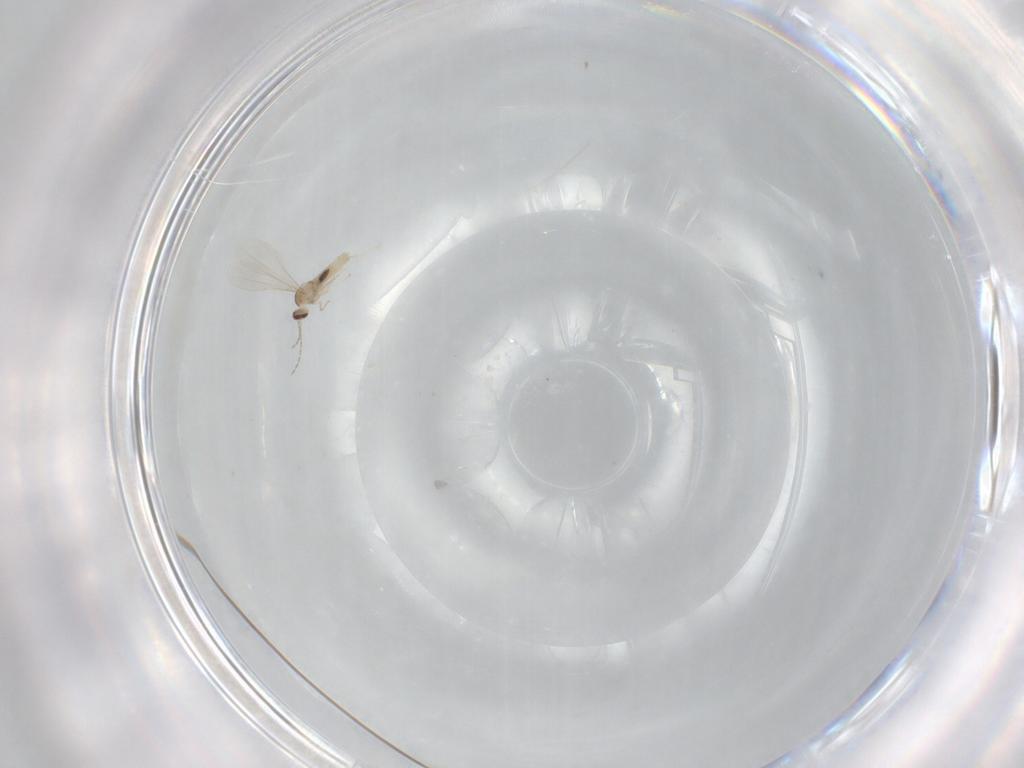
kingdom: Animalia
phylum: Arthropoda
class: Insecta
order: Diptera
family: Cecidomyiidae
